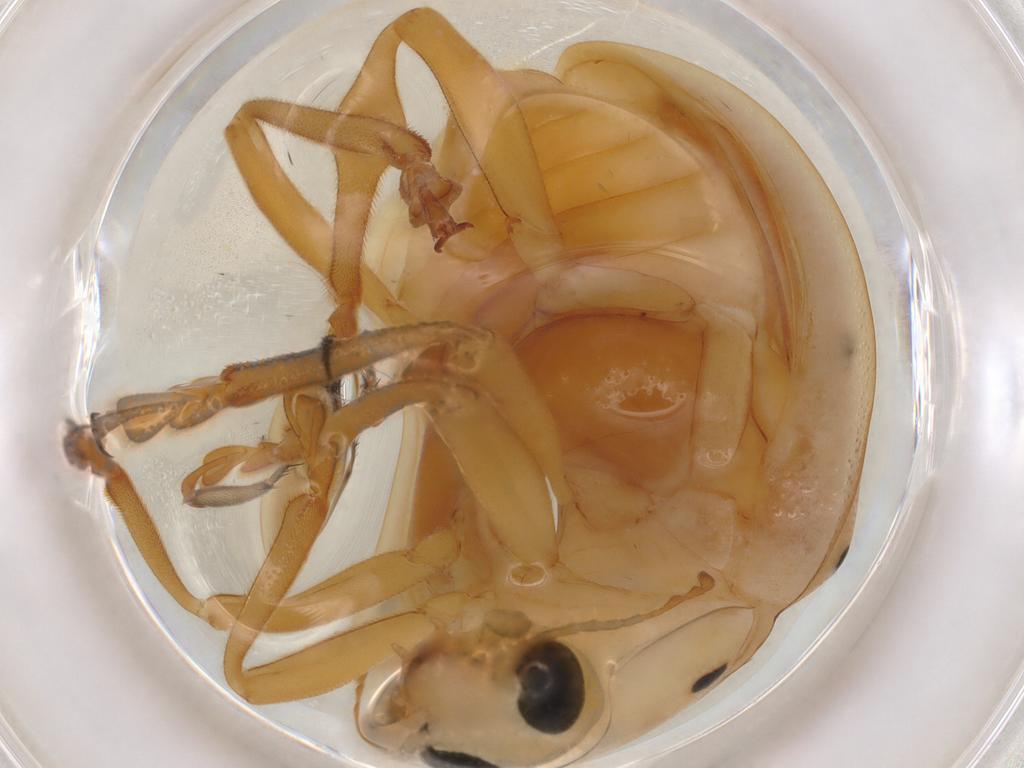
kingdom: Animalia
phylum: Arthropoda
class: Insecta
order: Coleoptera
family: Coccinellidae
